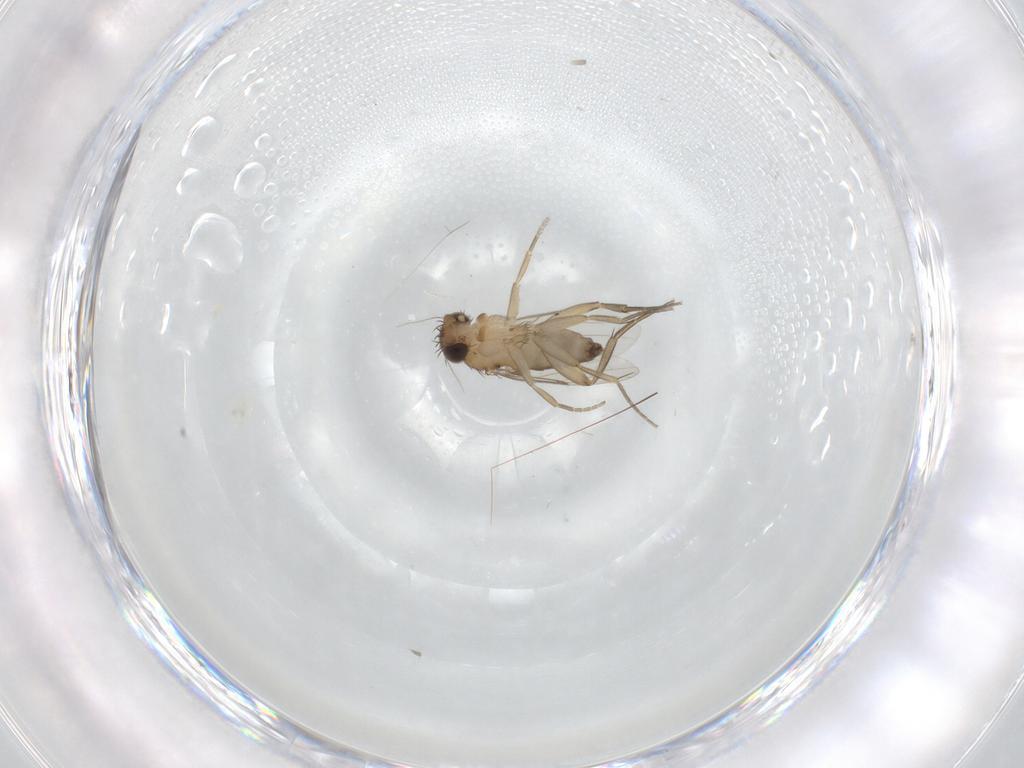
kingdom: Animalia
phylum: Arthropoda
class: Insecta
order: Diptera
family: Phoridae
